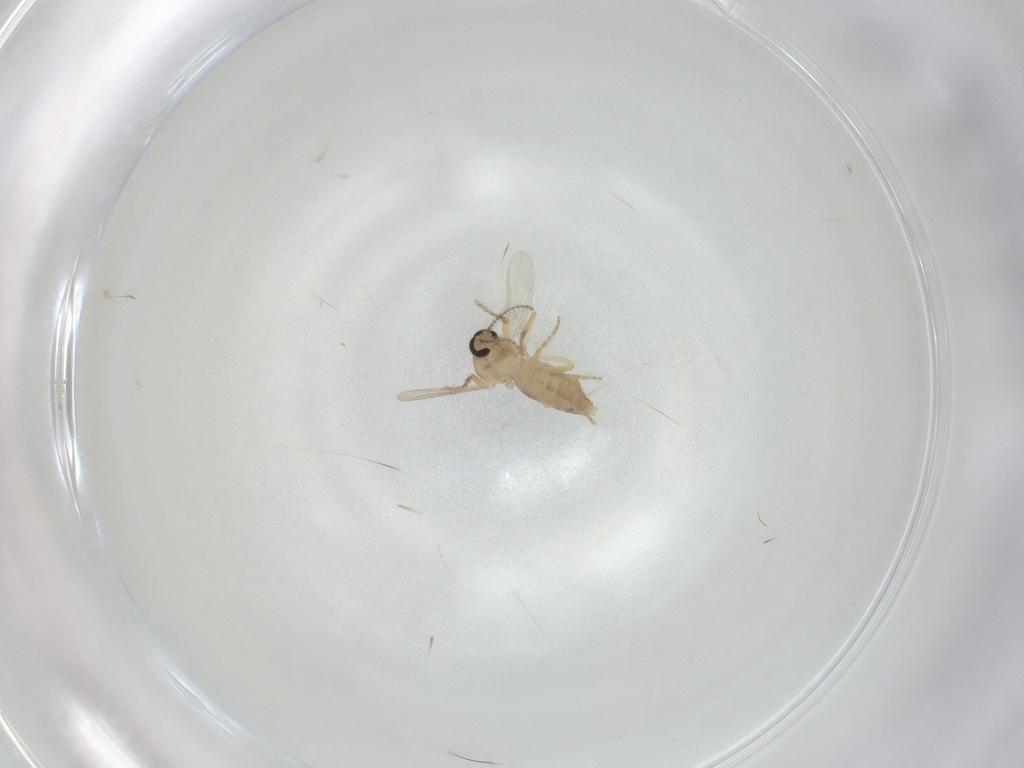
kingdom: Animalia
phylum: Arthropoda
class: Insecta
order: Diptera
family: Ceratopogonidae
